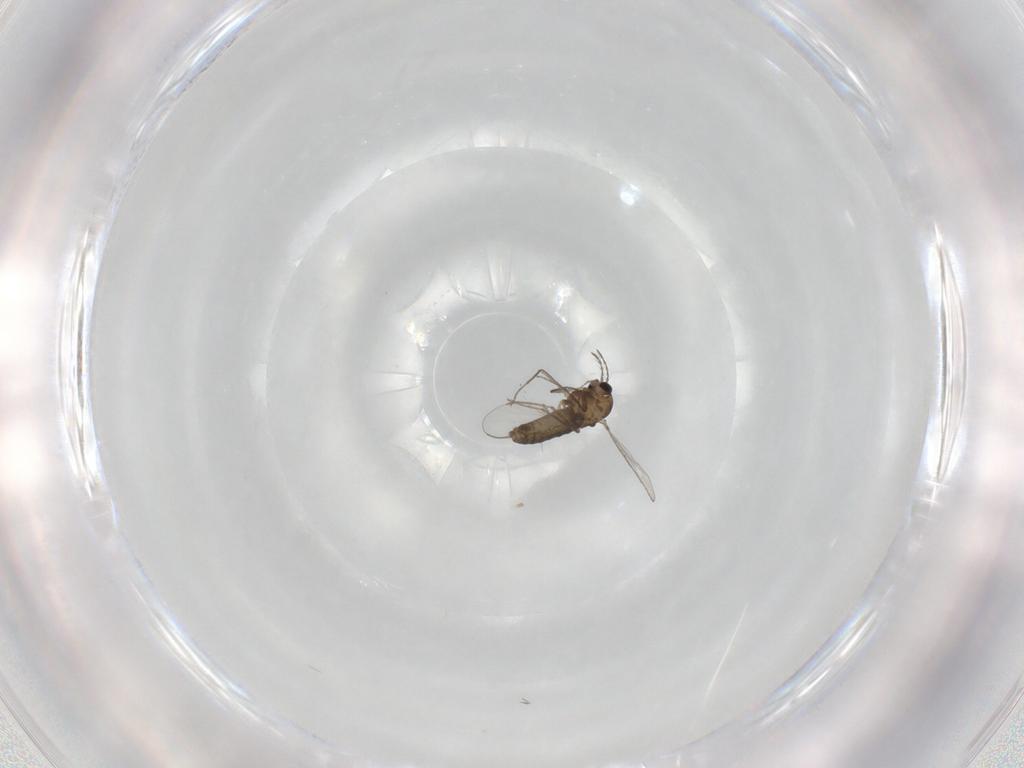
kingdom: Animalia
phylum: Arthropoda
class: Insecta
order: Diptera
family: Chironomidae
